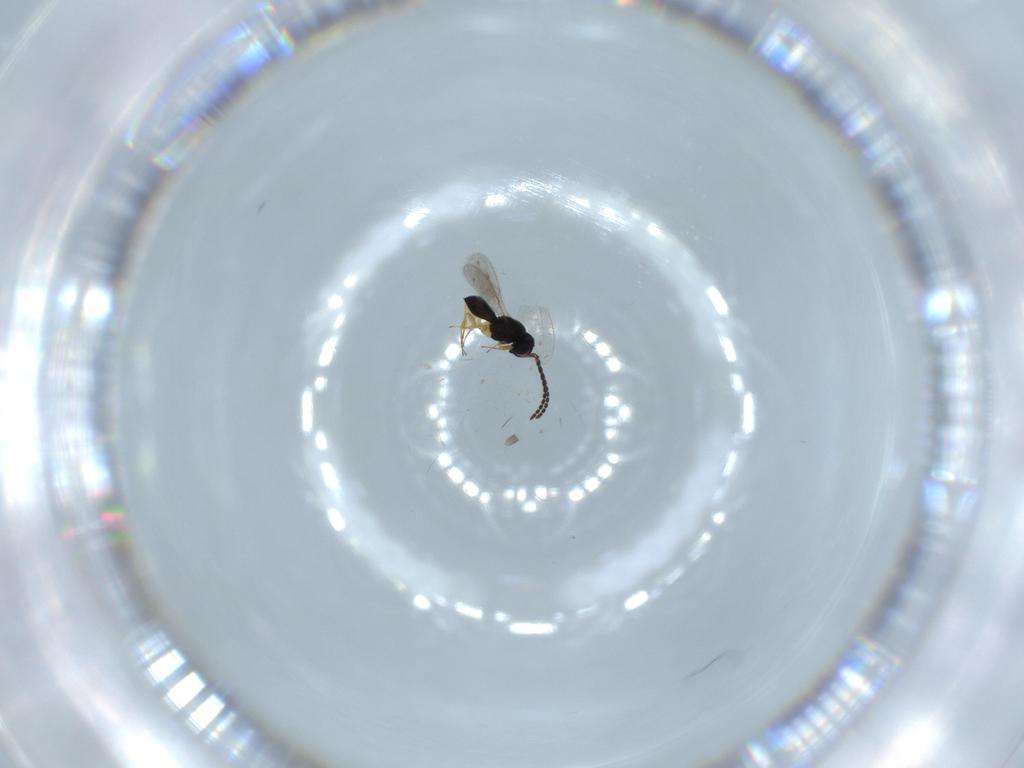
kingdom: Animalia
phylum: Arthropoda
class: Insecta
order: Hymenoptera
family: Scelionidae
